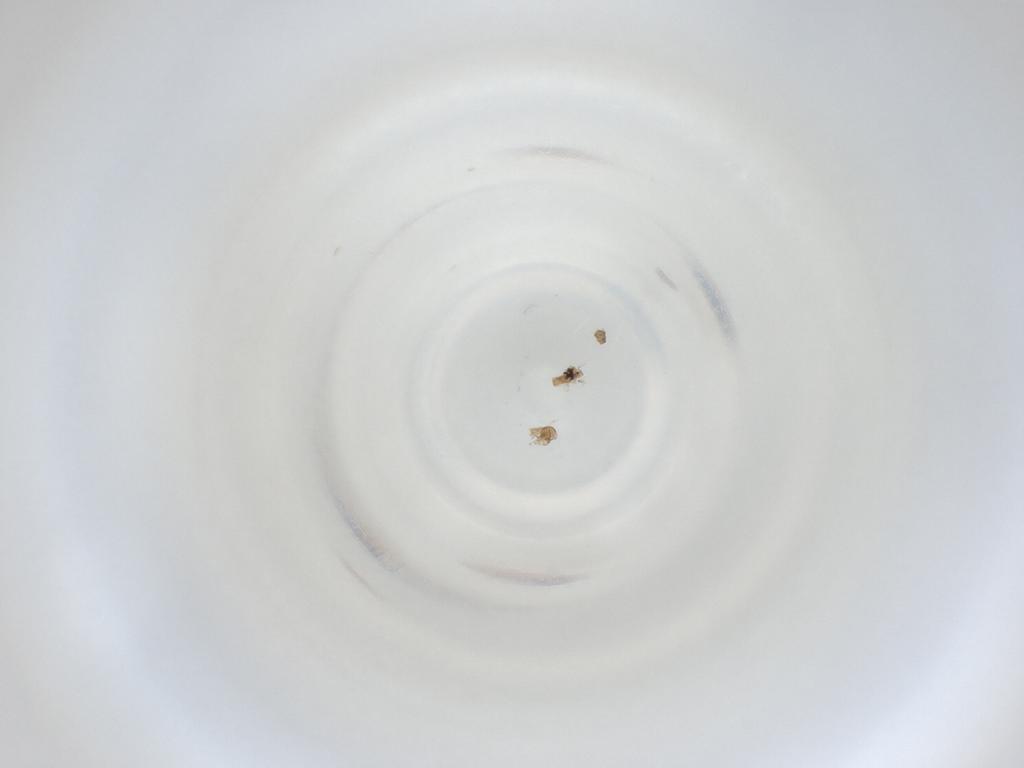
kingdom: Animalia
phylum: Arthropoda
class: Insecta
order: Diptera
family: Cecidomyiidae
